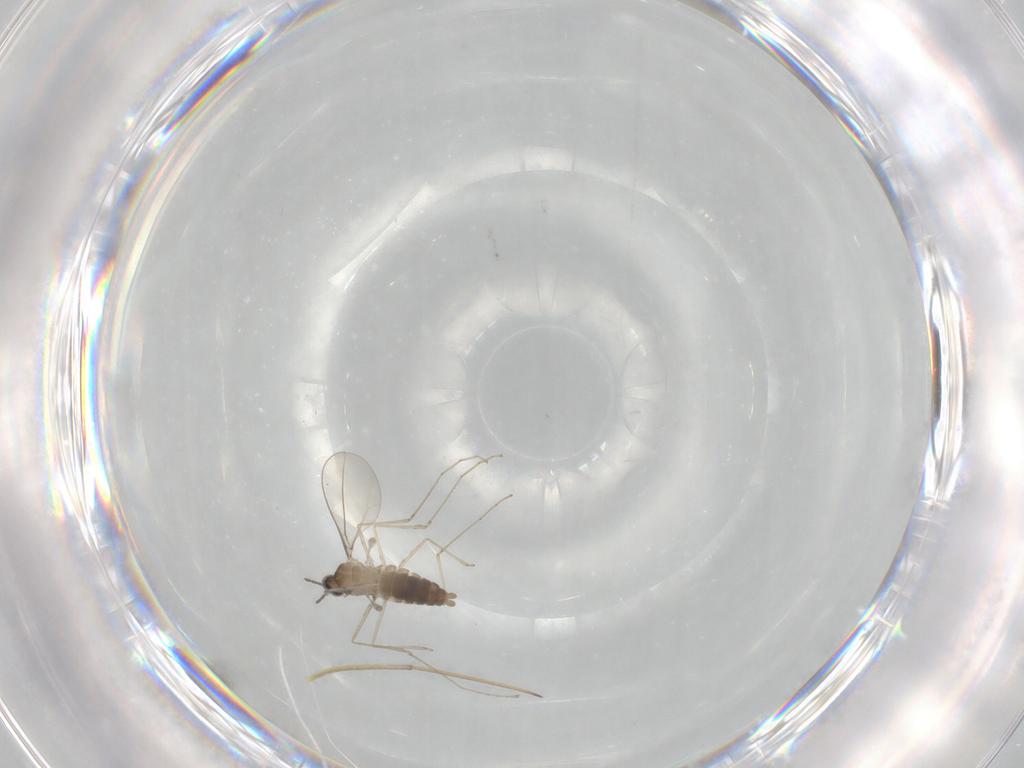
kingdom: Animalia
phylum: Arthropoda
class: Insecta
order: Diptera
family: Cecidomyiidae
